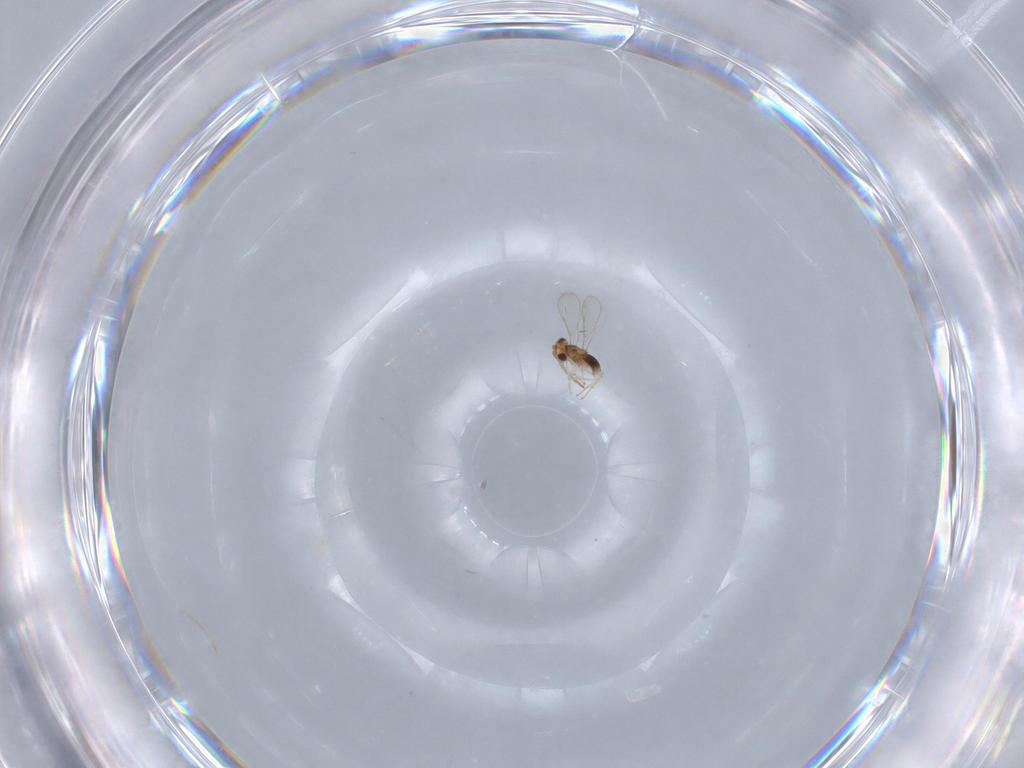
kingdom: Animalia
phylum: Arthropoda
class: Insecta
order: Hymenoptera
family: Aphelinidae
